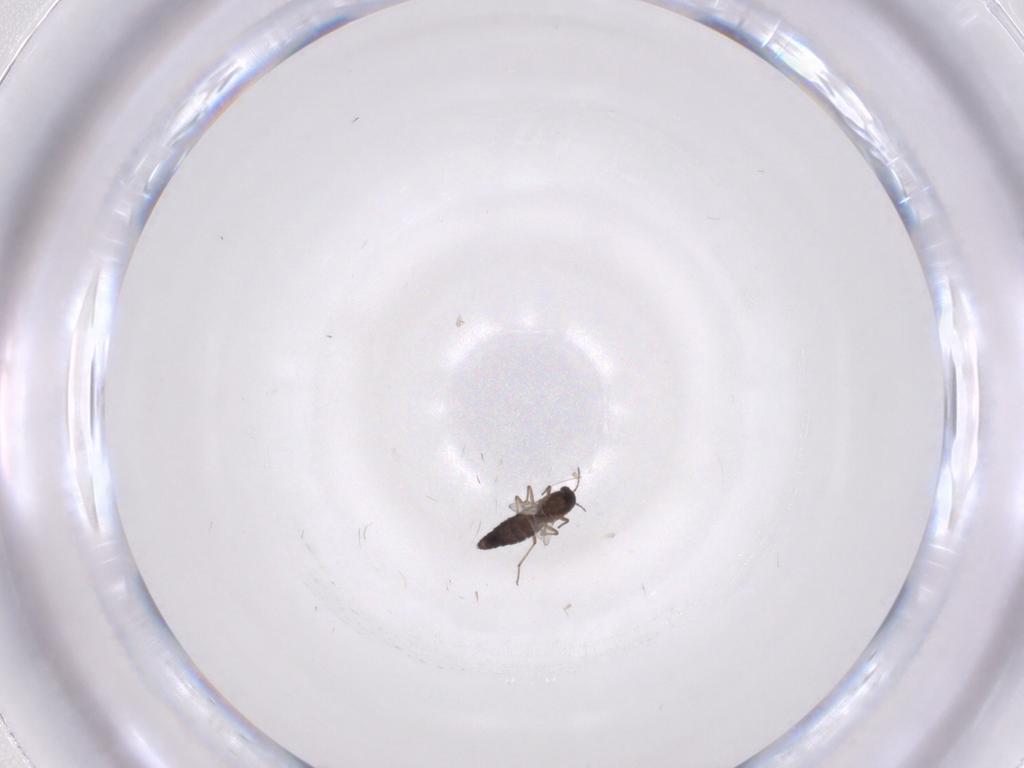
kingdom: Animalia
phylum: Arthropoda
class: Insecta
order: Diptera
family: Chironomidae
